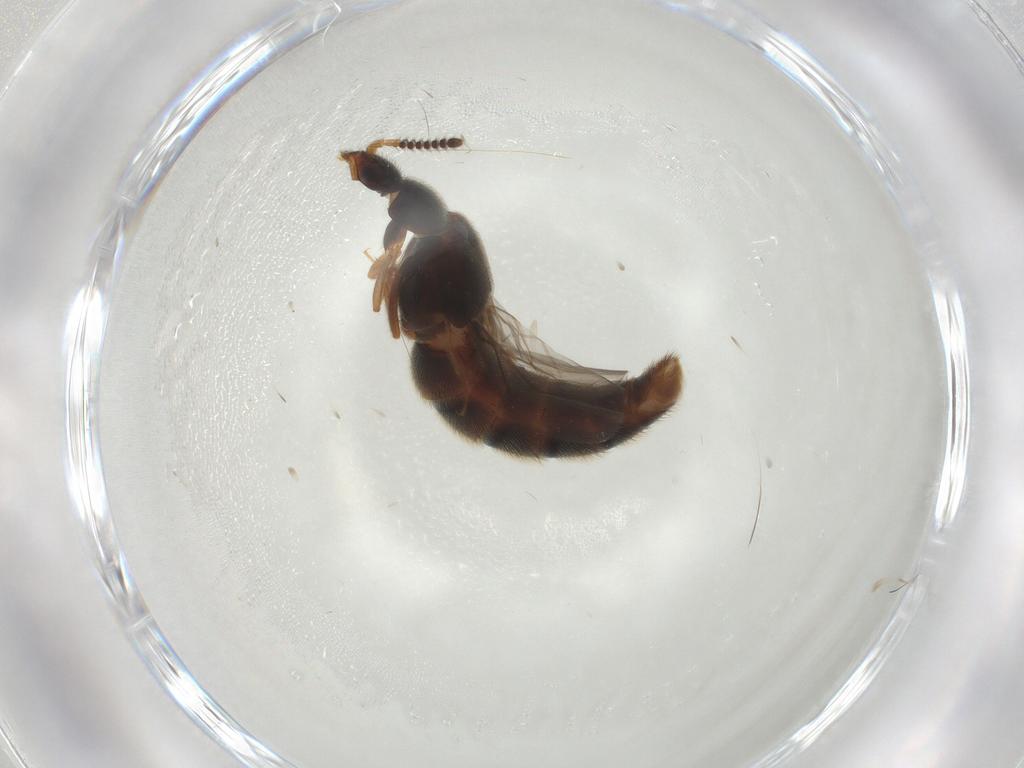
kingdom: Animalia
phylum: Arthropoda
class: Insecta
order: Coleoptera
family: Staphylinidae
